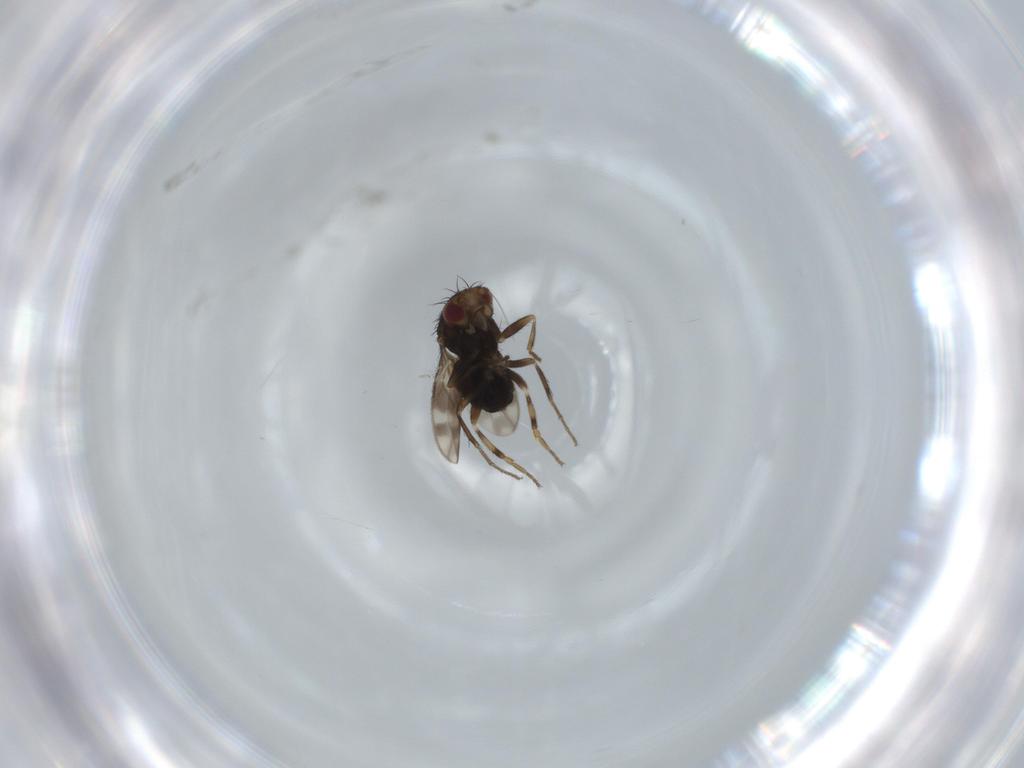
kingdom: Animalia
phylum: Arthropoda
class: Insecta
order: Diptera
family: Sphaeroceridae
